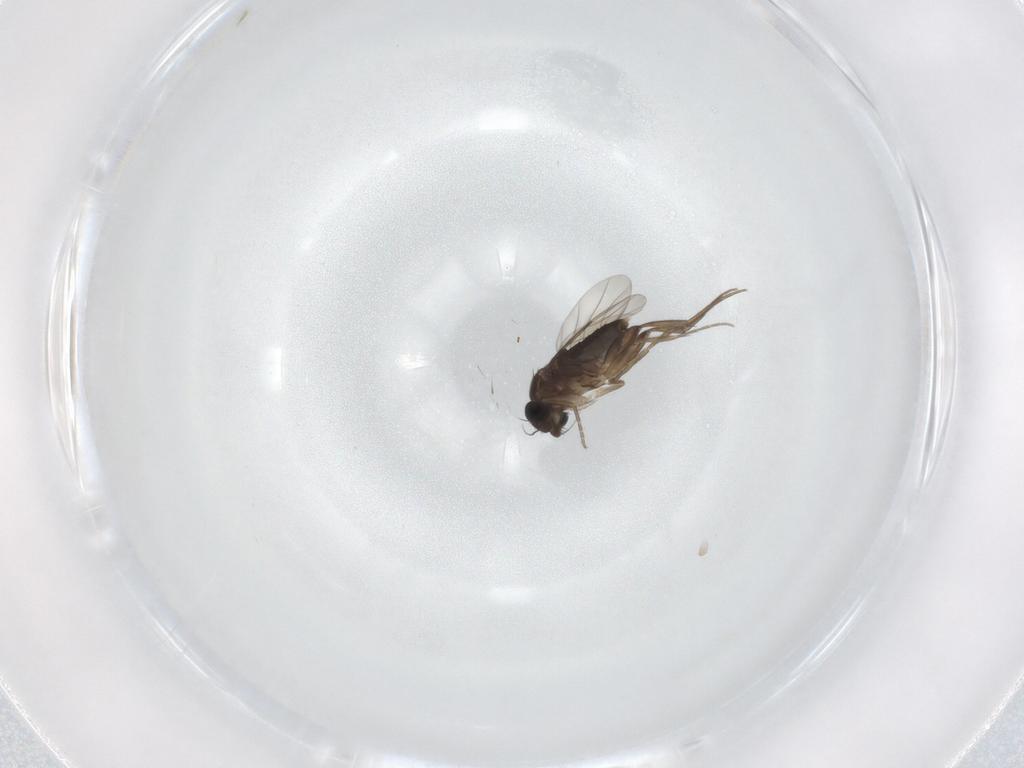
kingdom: Animalia
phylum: Arthropoda
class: Insecta
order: Diptera
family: Phoridae
